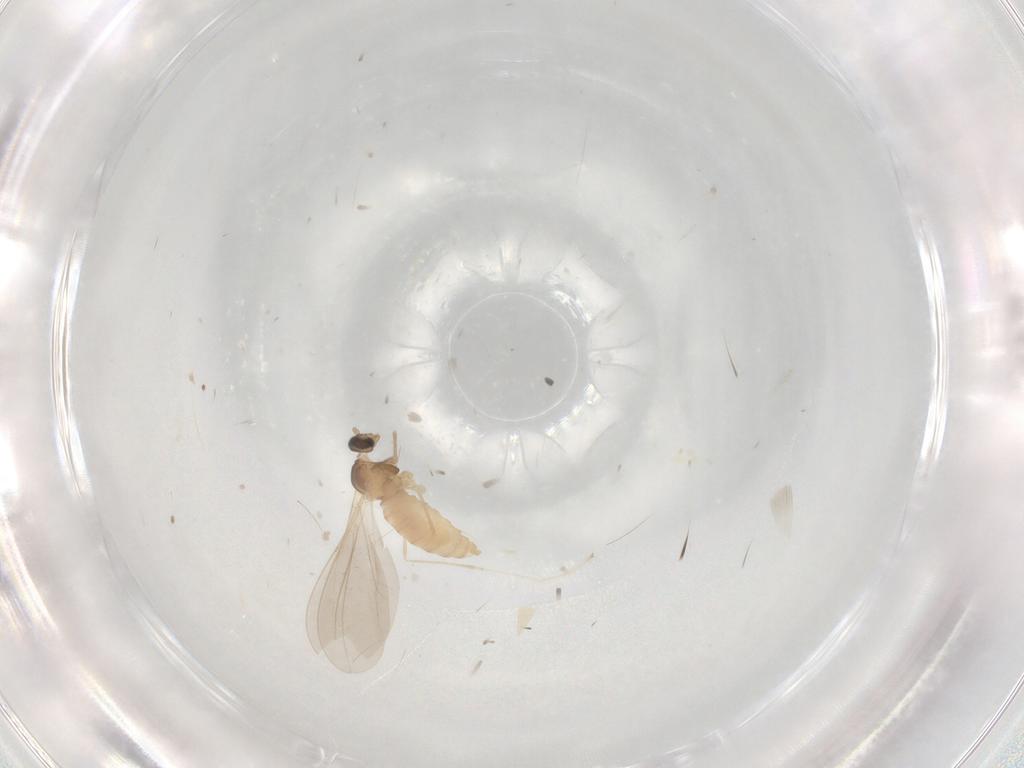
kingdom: Animalia
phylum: Arthropoda
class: Insecta
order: Diptera
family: Cecidomyiidae
